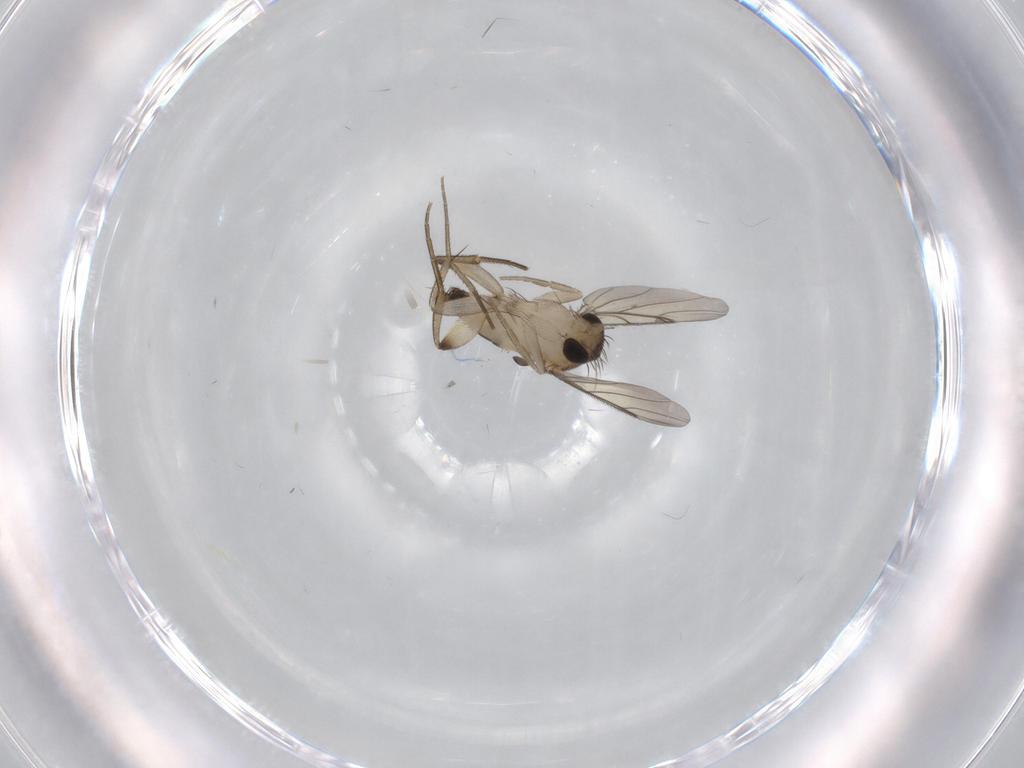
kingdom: Animalia
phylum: Arthropoda
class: Insecta
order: Diptera
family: Phoridae
